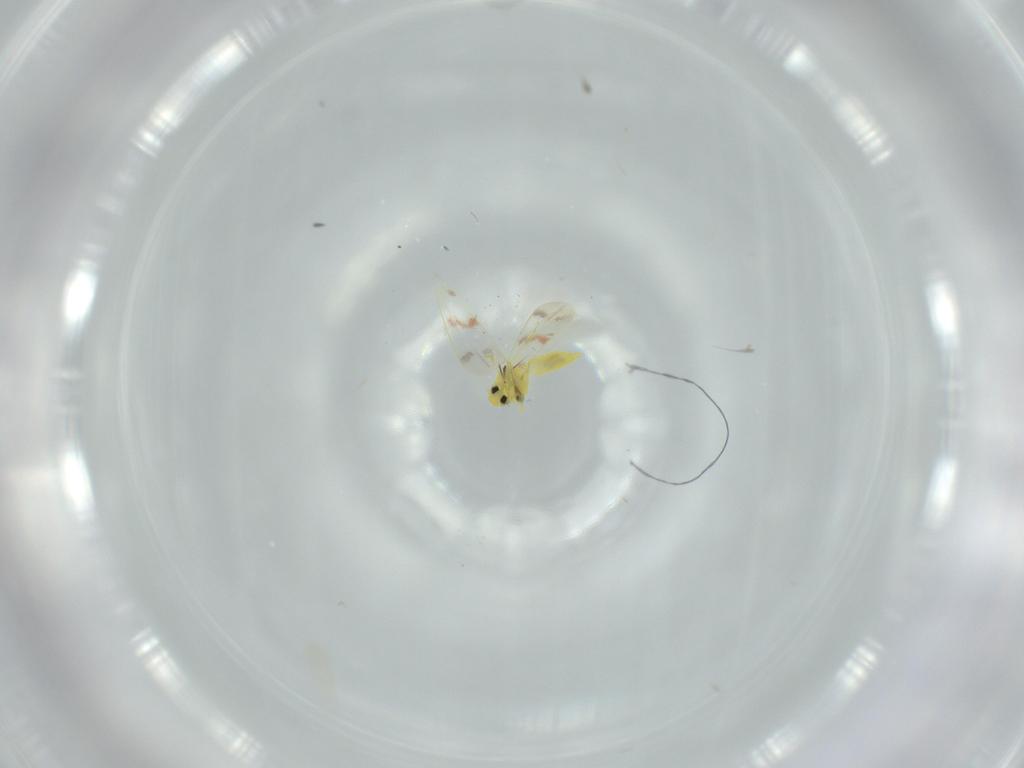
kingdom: Animalia
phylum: Arthropoda
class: Insecta
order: Hemiptera
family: Aleyrodidae
